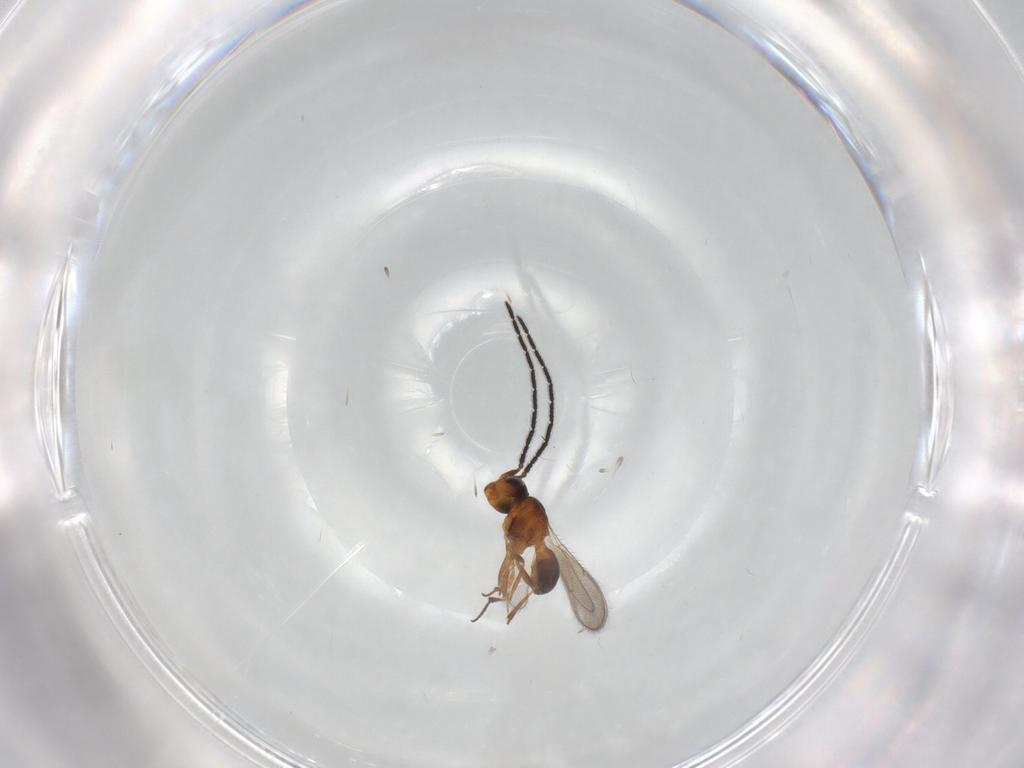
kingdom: Animalia
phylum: Arthropoda
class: Insecta
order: Hymenoptera
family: Scelionidae
